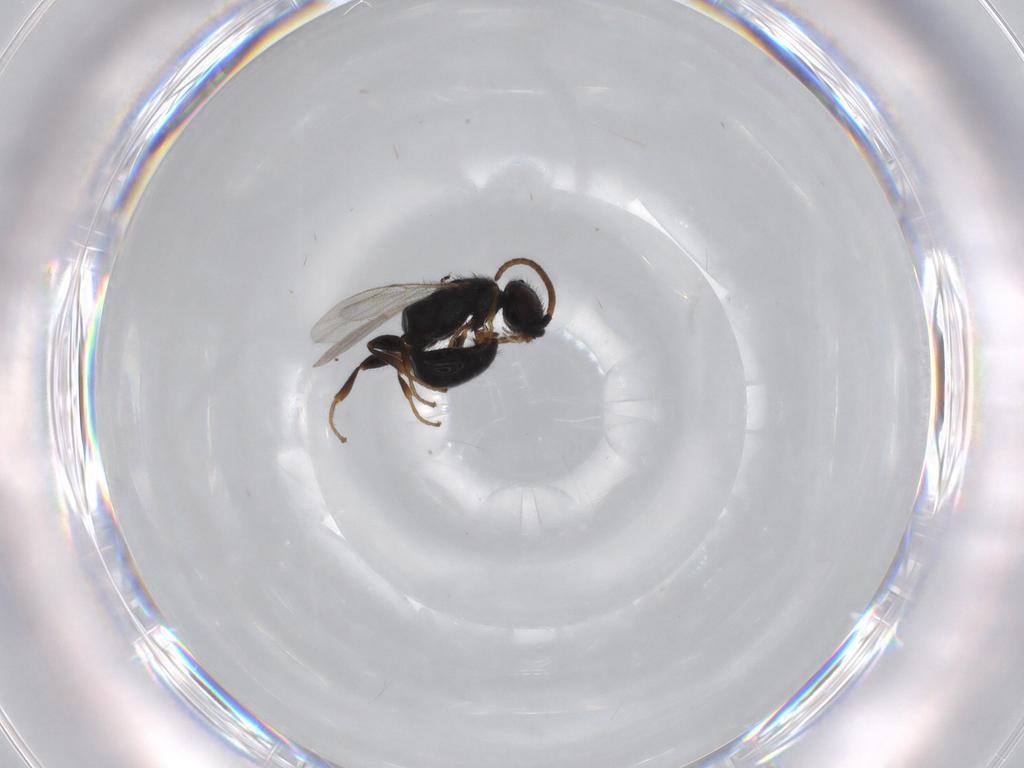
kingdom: Animalia
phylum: Arthropoda
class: Insecta
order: Hymenoptera
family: Bethylidae
